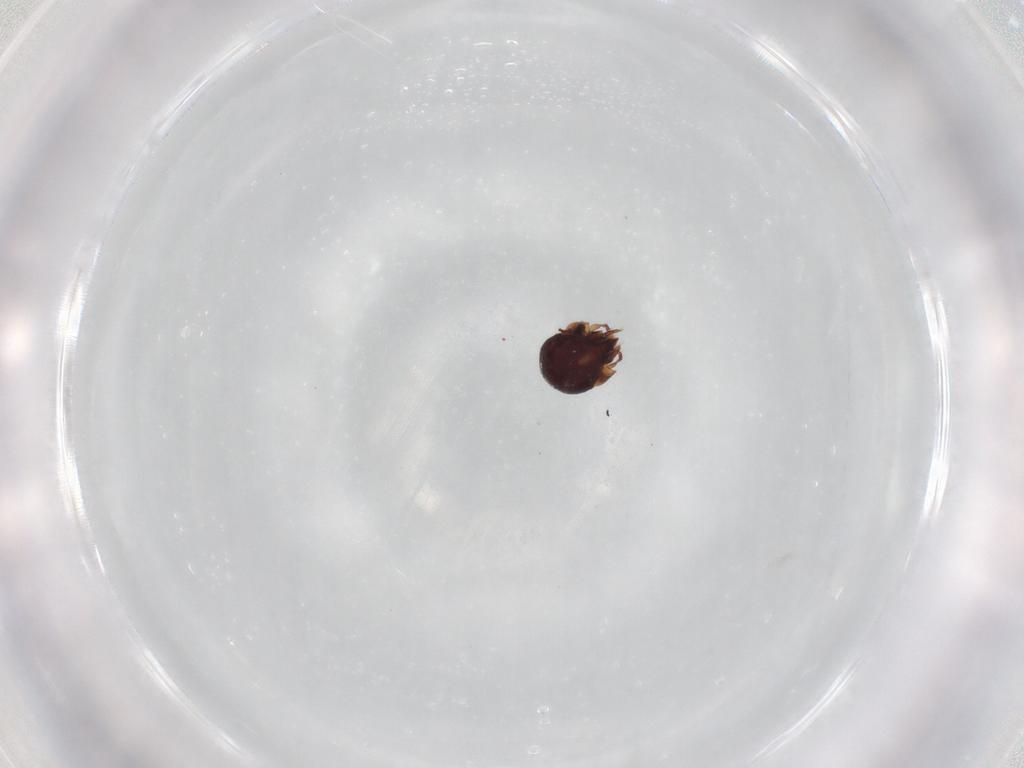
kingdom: Animalia
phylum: Arthropoda
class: Arachnida
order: Sarcoptiformes
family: Phenopelopidae
